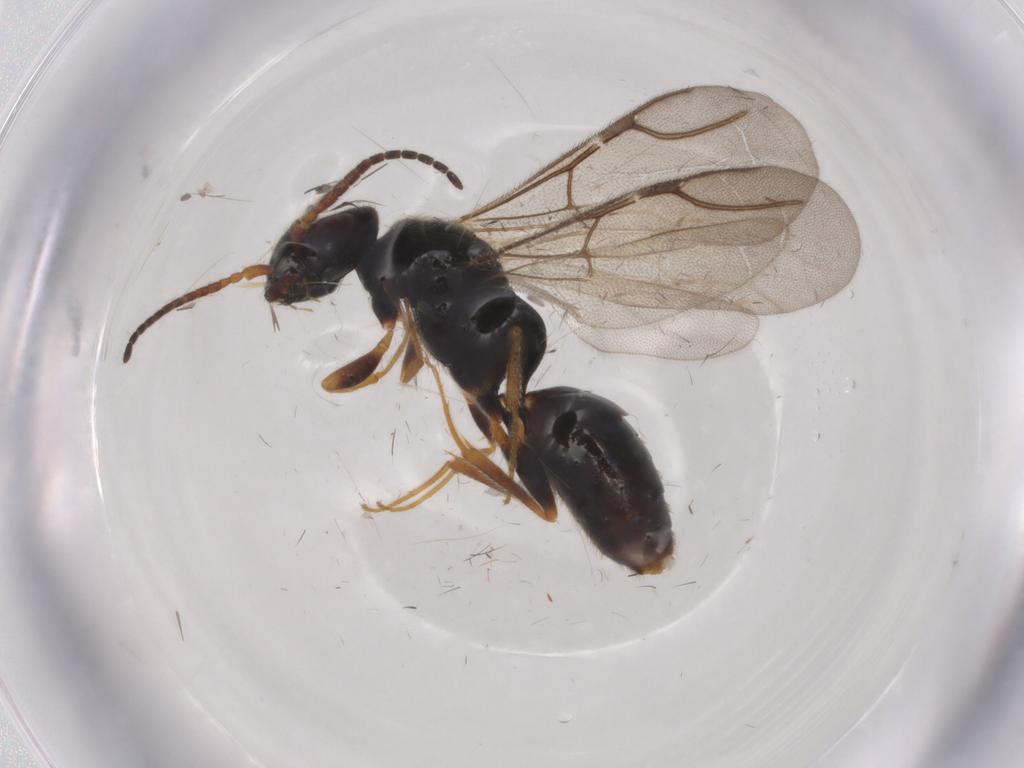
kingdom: Animalia
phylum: Arthropoda
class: Insecta
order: Hymenoptera
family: Bethylidae
